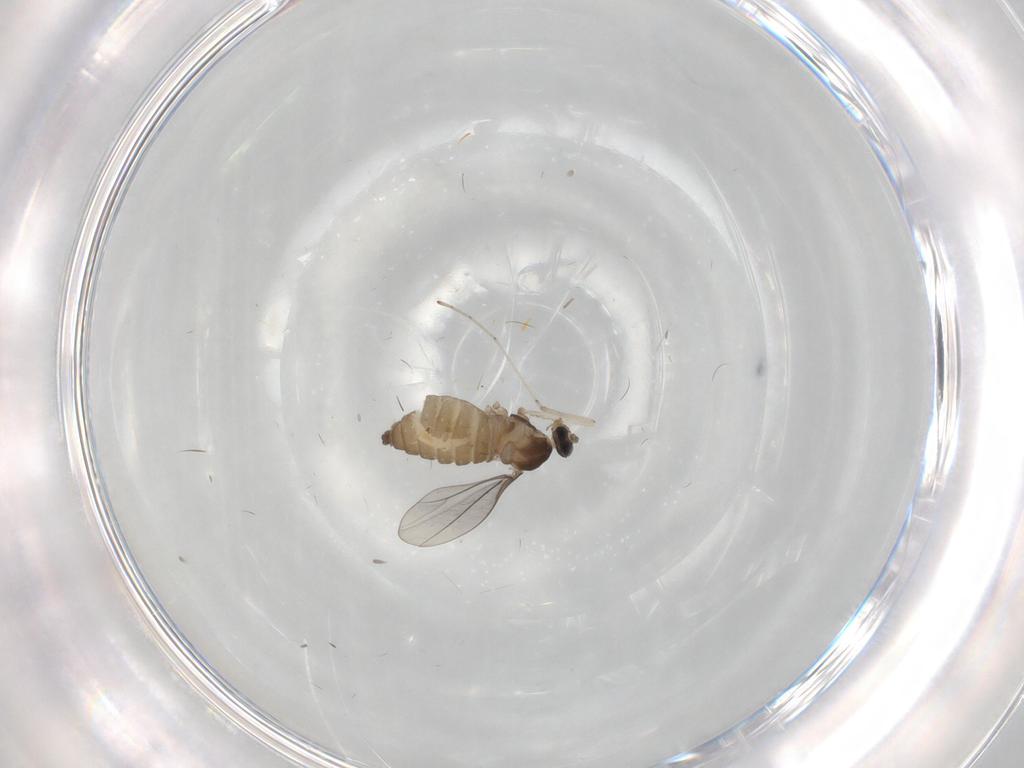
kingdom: Animalia
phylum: Arthropoda
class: Insecta
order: Diptera
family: Cecidomyiidae
